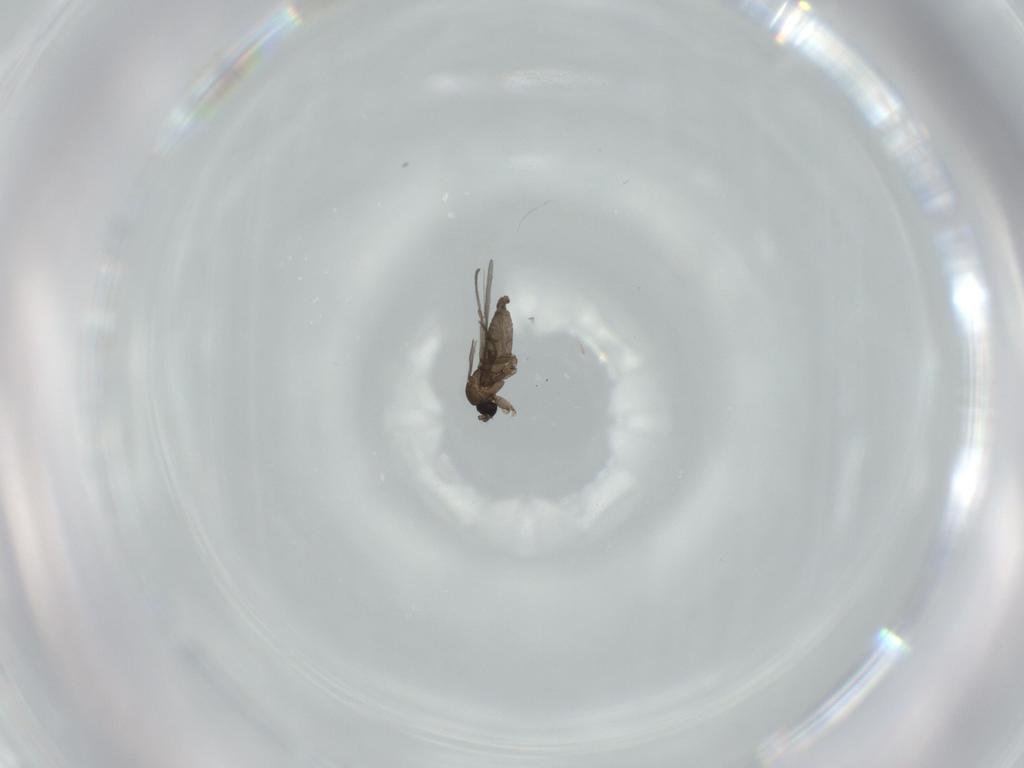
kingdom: Animalia
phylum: Arthropoda
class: Insecta
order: Diptera
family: Sciaridae
